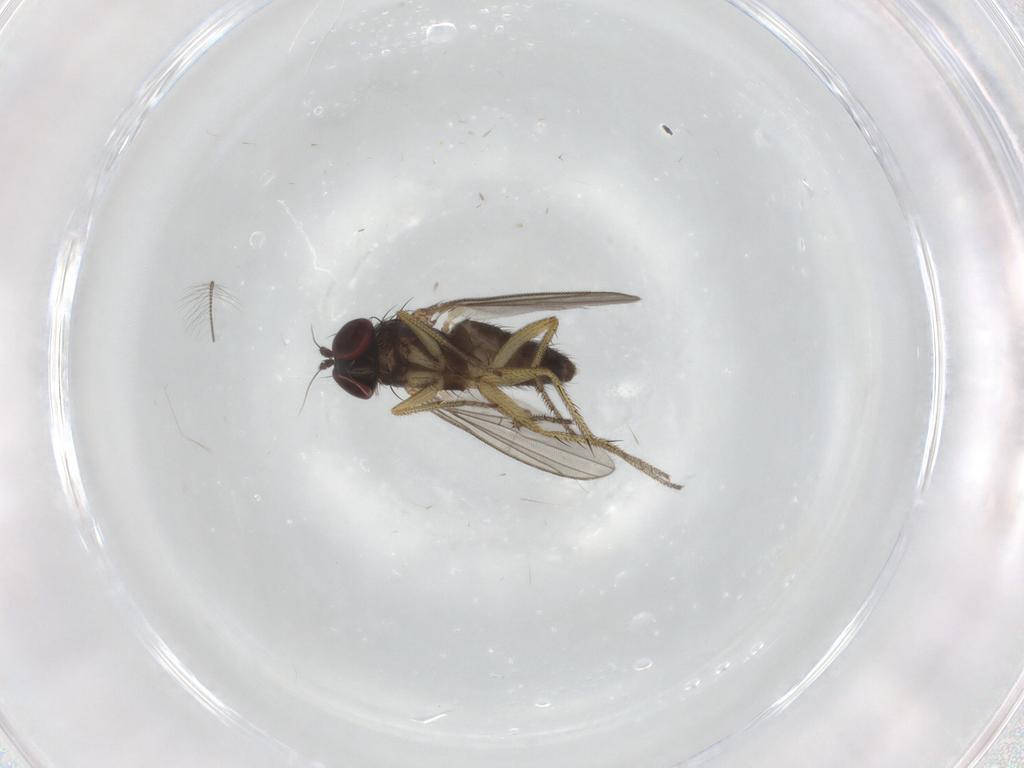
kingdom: Animalia
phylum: Arthropoda
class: Insecta
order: Diptera
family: Dolichopodidae
